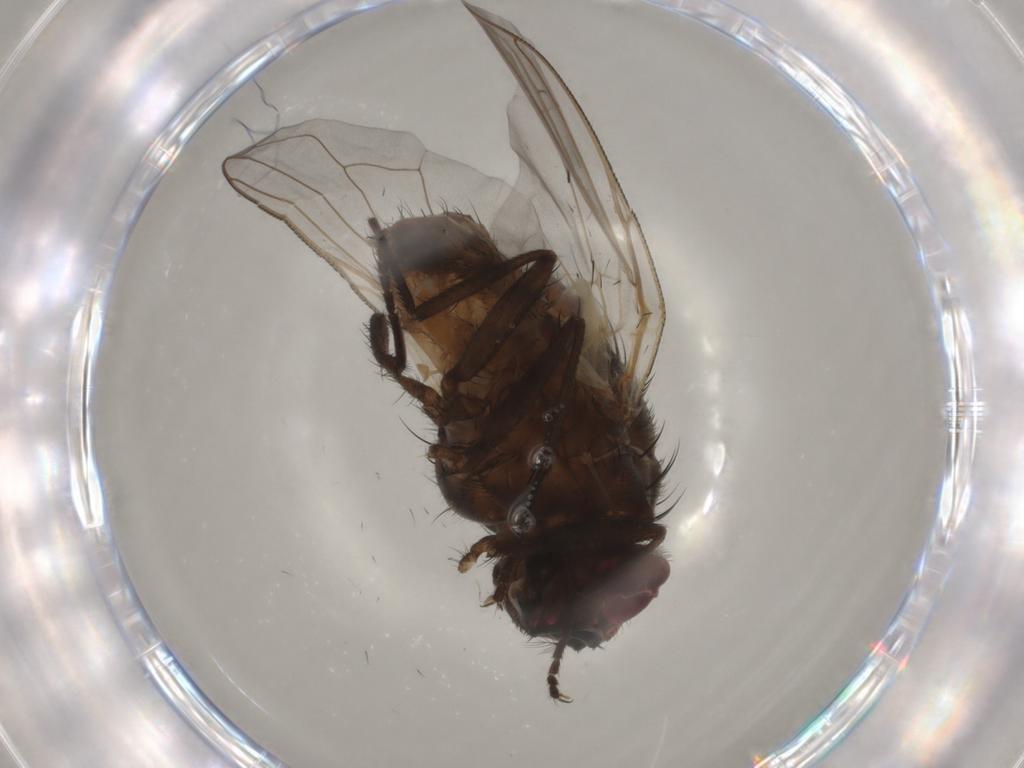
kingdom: Animalia
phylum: Arthropoda
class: Insecta
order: Diptera
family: Muscidae
